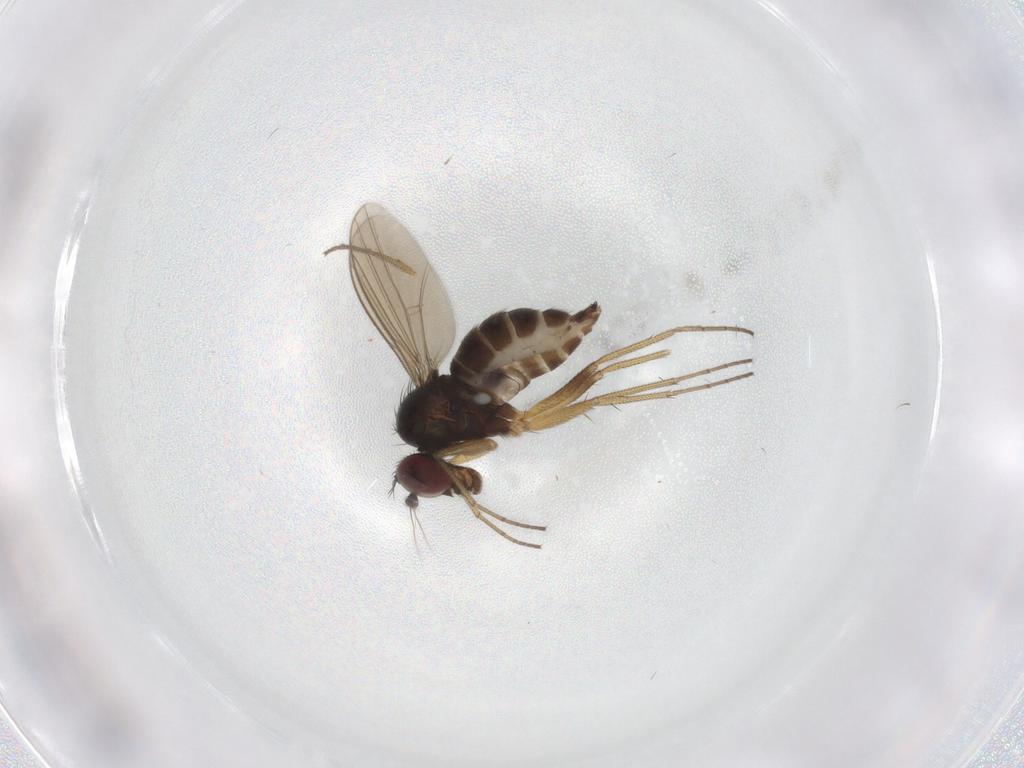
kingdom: Animalia
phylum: Arthropoda
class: Insecta
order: Diptera
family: Dolichopodidae
